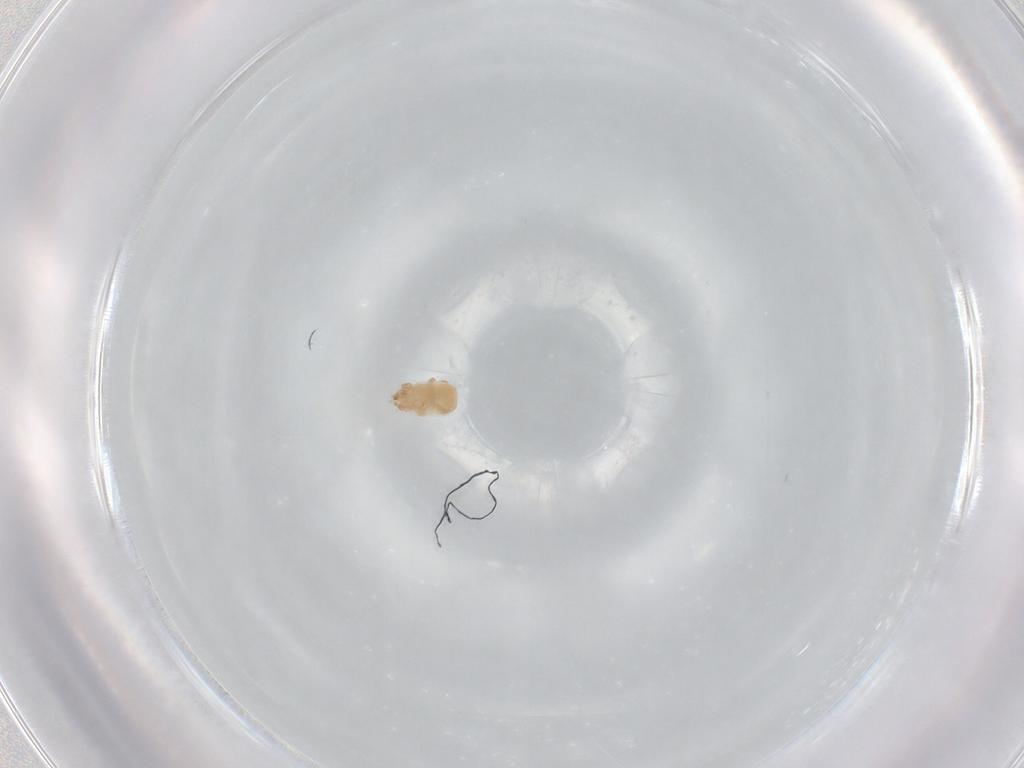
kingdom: Animalia
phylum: Arthropoda
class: Arachnida
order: Mesostigmata
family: Halolaelapidae
